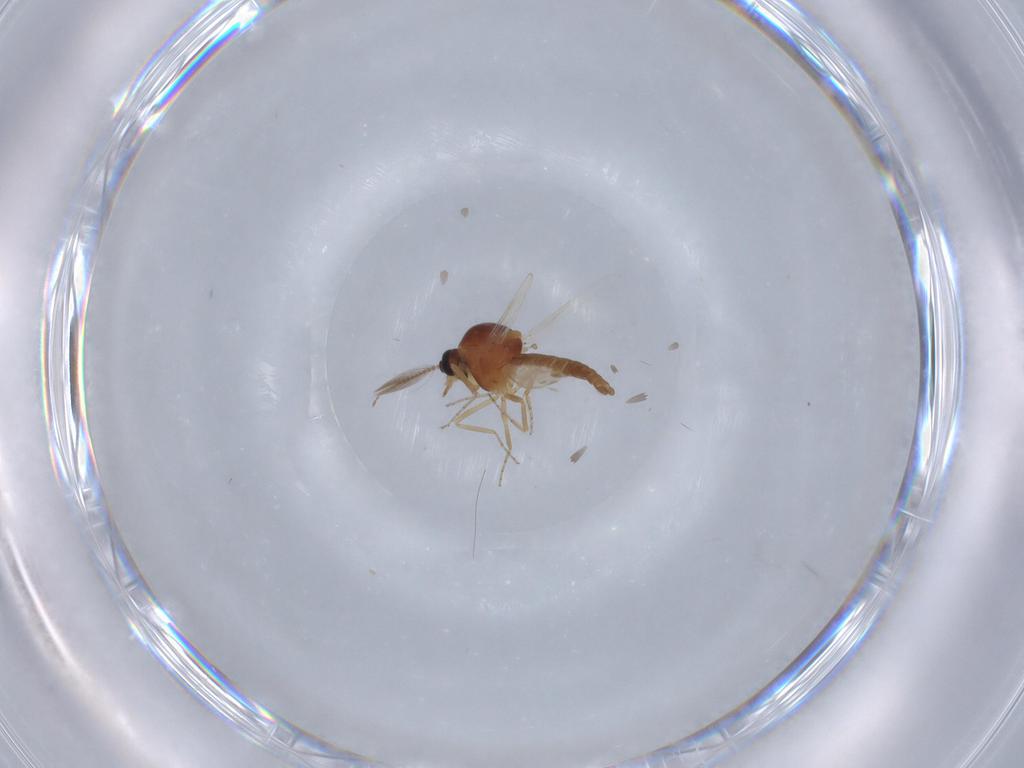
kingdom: Animalia
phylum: Arthropoda
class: Insecta
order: Diptera
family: Ceratopogonidae
